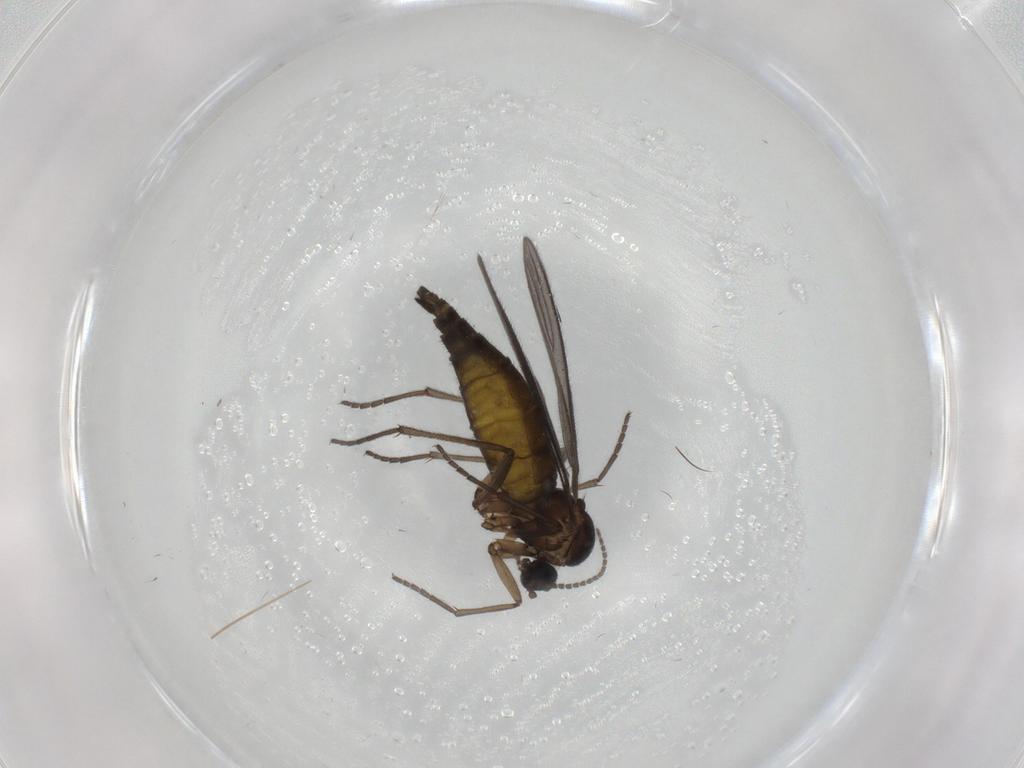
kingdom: Animalia
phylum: Arthropoda
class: Insecta
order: Diptera
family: Sciaridae
